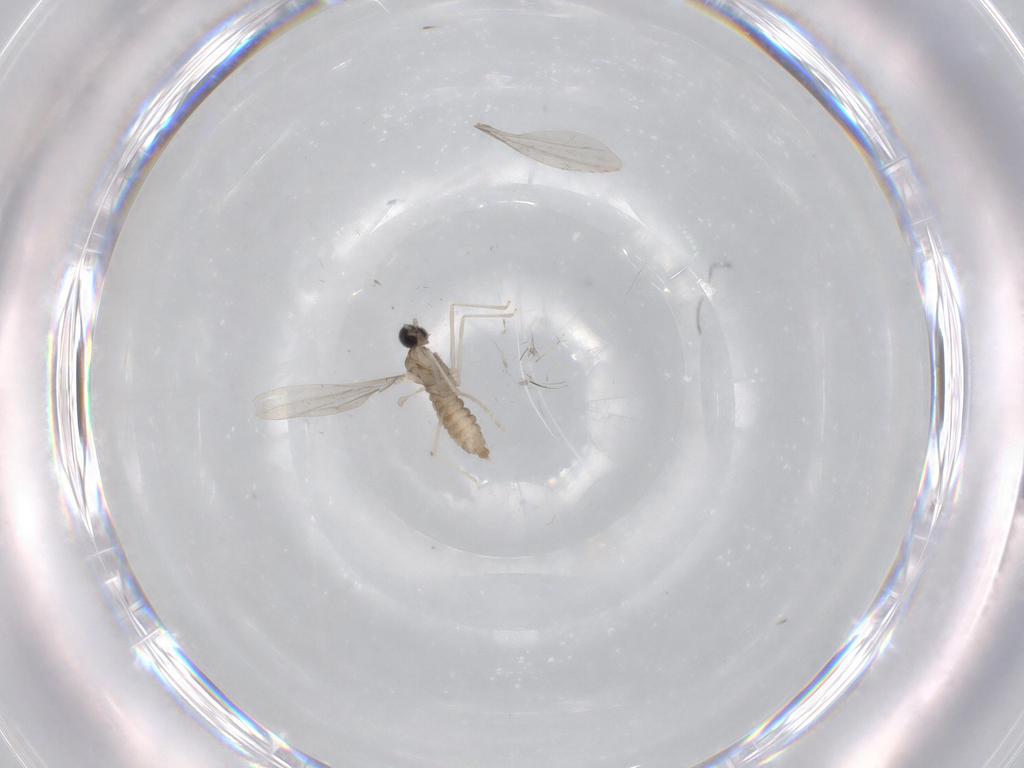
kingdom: Animalia
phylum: Arthropoda
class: Insecta
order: Diptera
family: Cecidomyiidae
